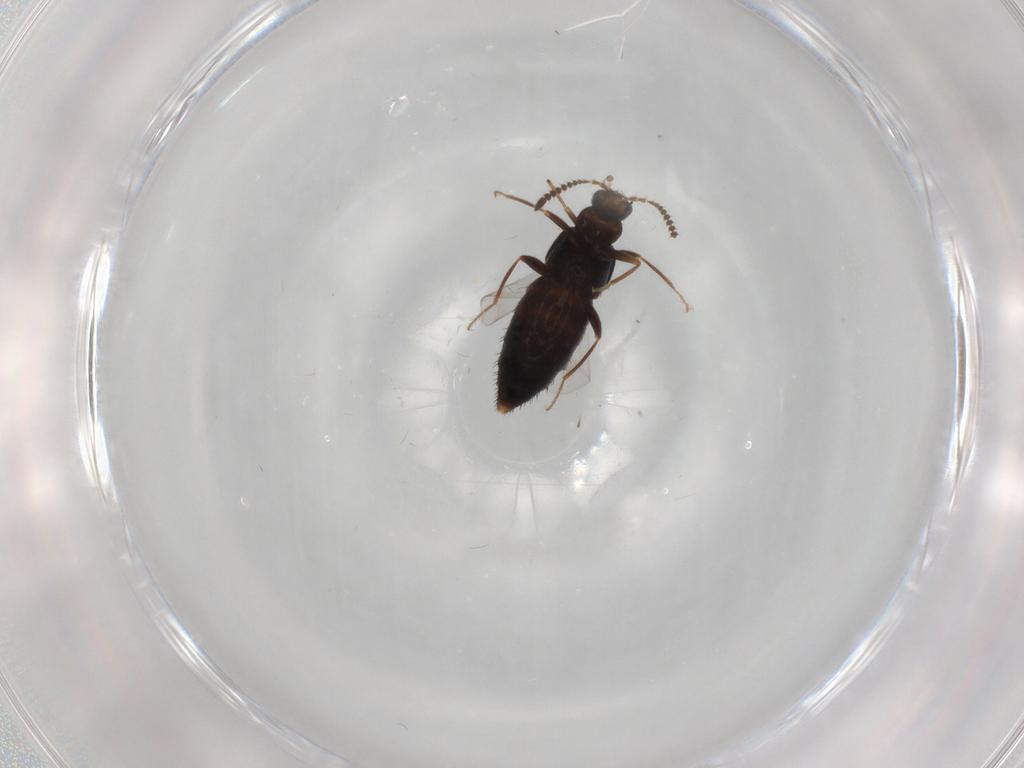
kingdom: Animalia
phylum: Arthropoda
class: Insecta
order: Coleoptera
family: Staphylinidae
